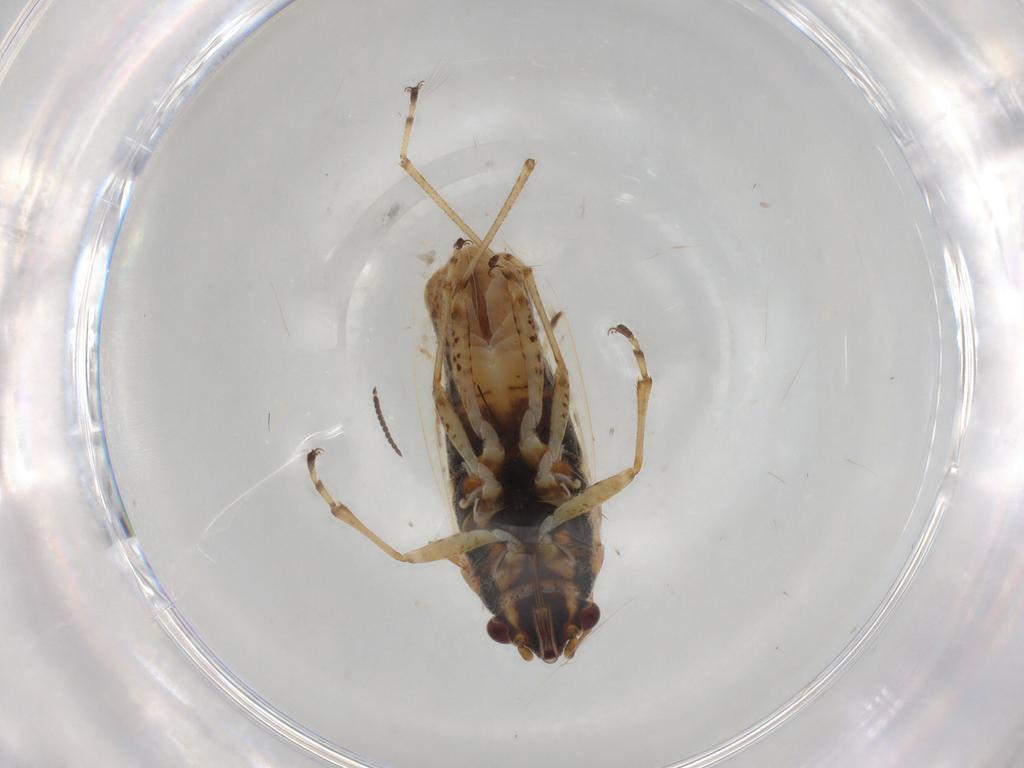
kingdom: Animalia
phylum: Arthropoda
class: Insecta
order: Hemiptera
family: Lygaeidae
